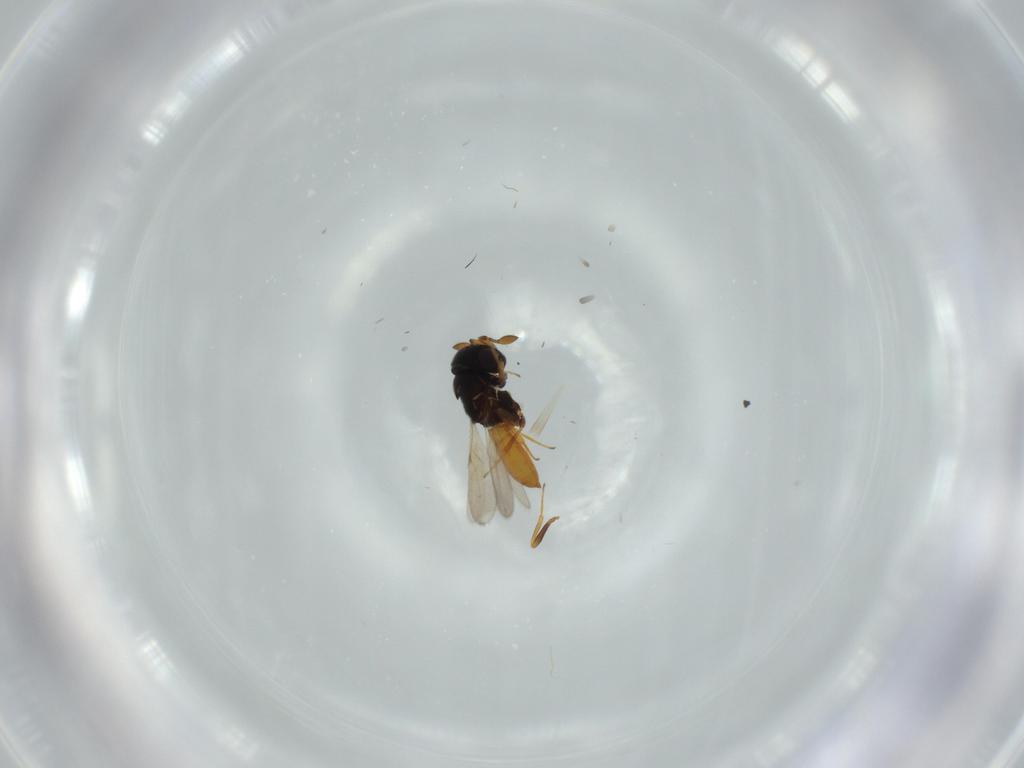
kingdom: Animalia
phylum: Arthropoda
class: Insecta
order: Hymenoptera
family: Scelionidae
